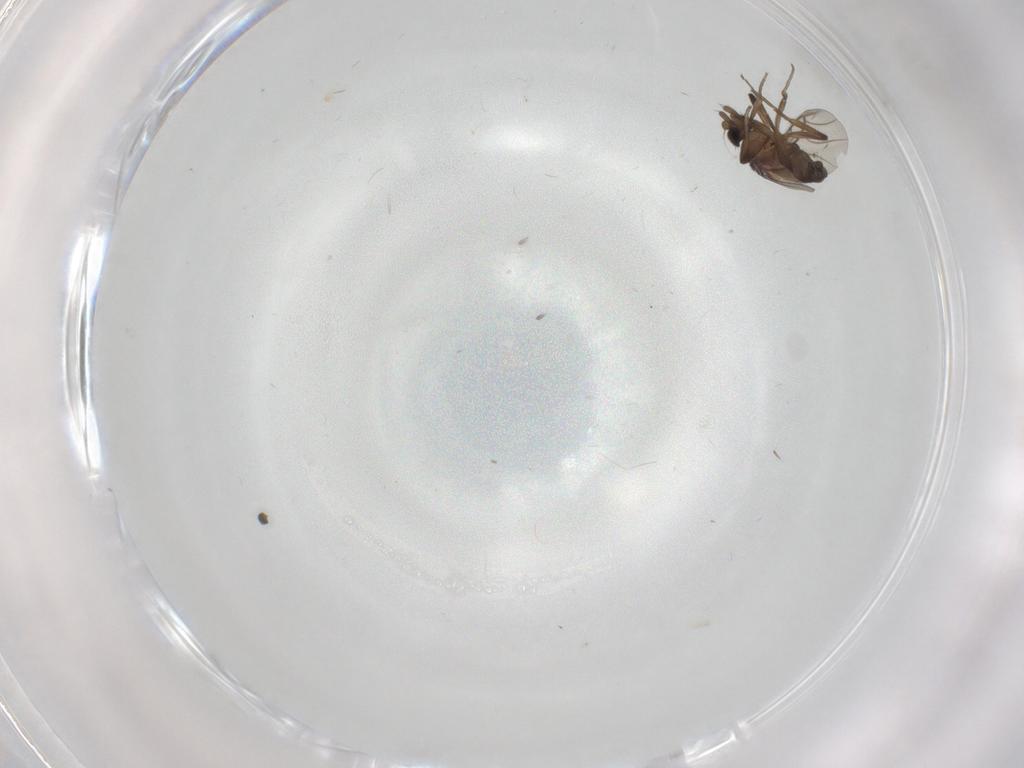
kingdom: Animalia
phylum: Arthropoda
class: Insecta
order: Diptera
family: Phoridae
